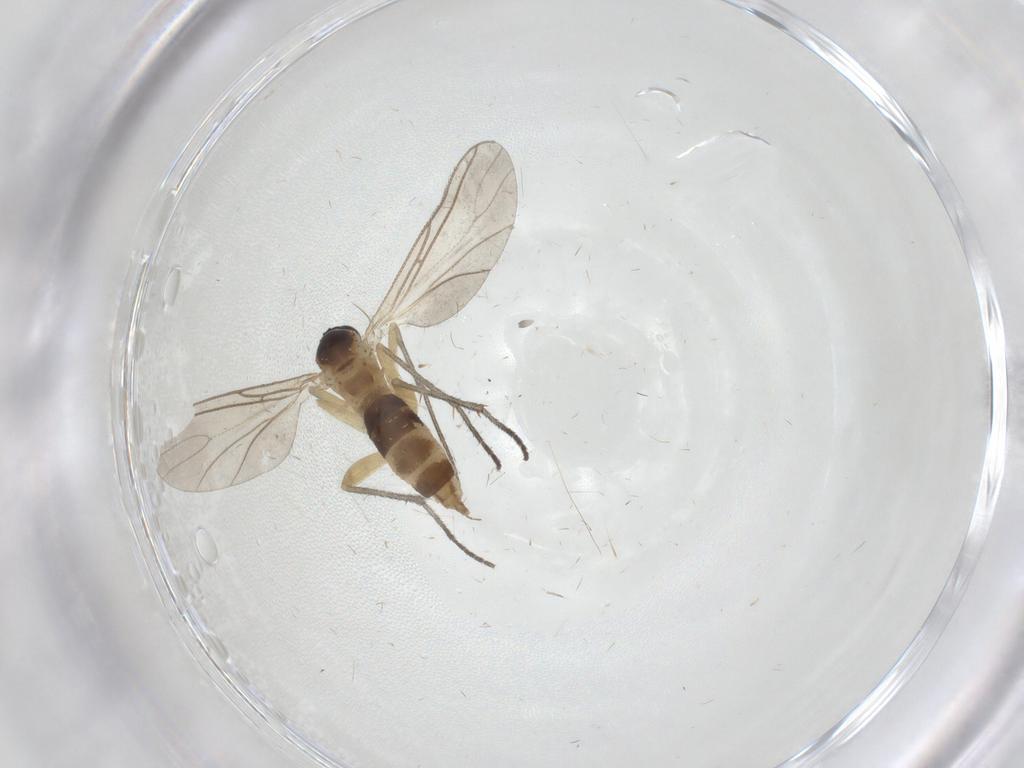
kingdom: Animalia
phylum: Arthropoda
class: Insecta
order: Diptera
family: Sciaridae
